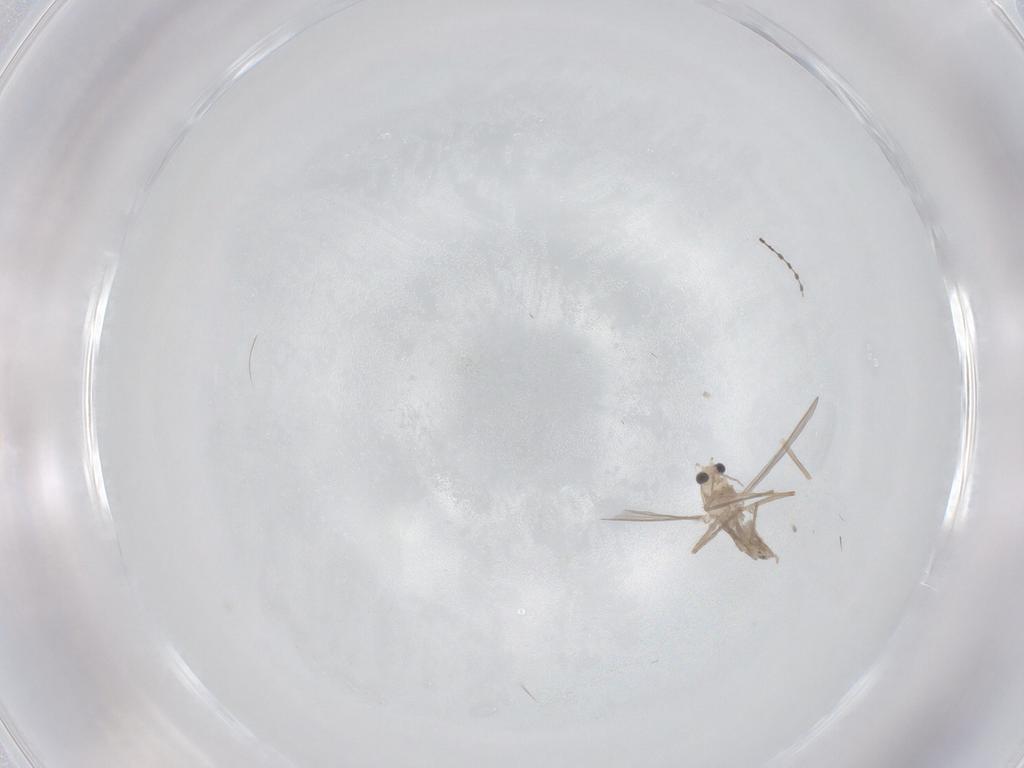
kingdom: Animalia
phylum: Arthropoda
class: Insecta
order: Diptera
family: Chironomidae
